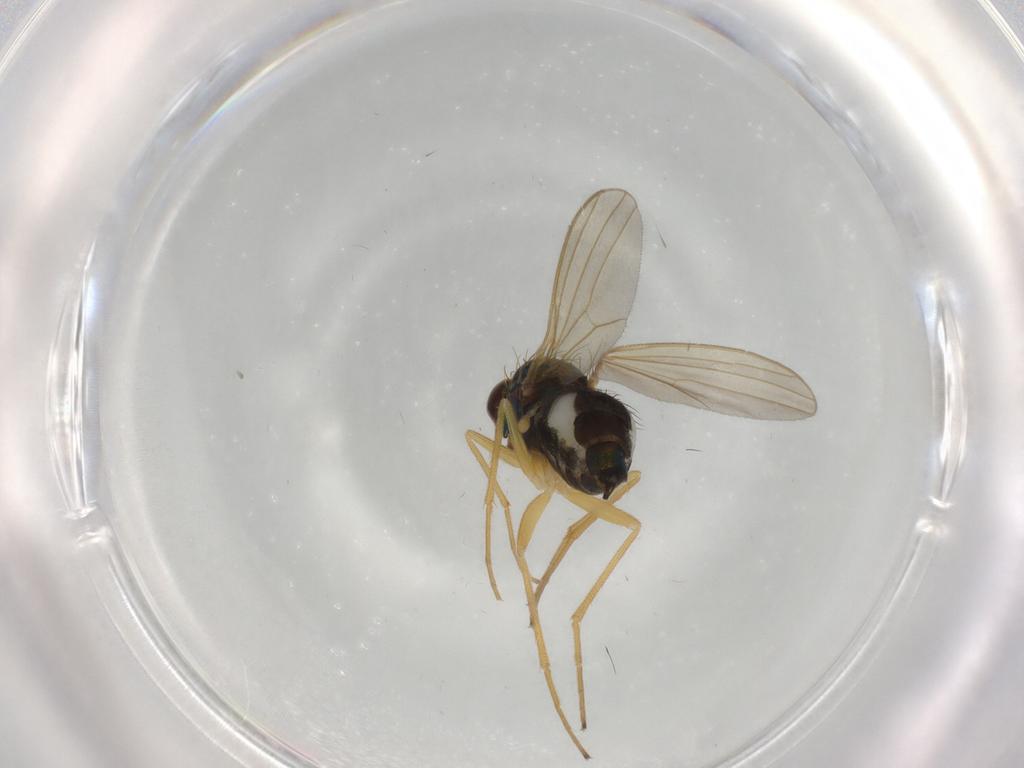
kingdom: Animalia
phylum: Arthropoda
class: Insecta
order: Diptera
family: Dolichopodidae
